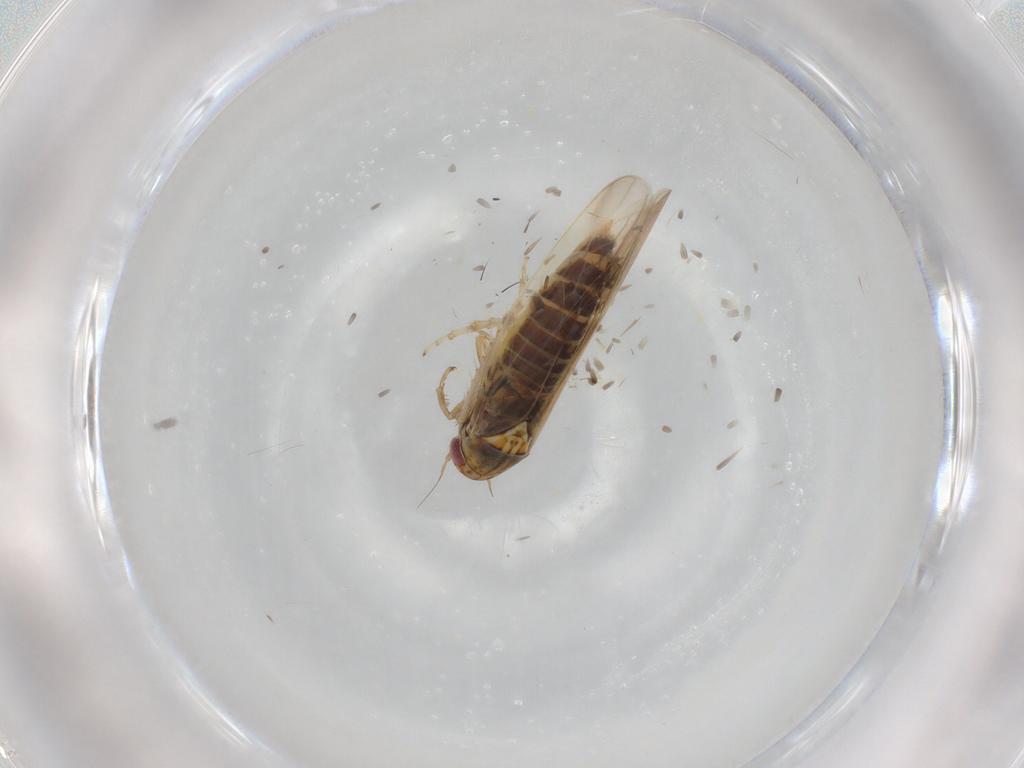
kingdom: Animalia
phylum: Arthropoda
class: Insecta
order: Hemiptera
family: Cicadellidae
